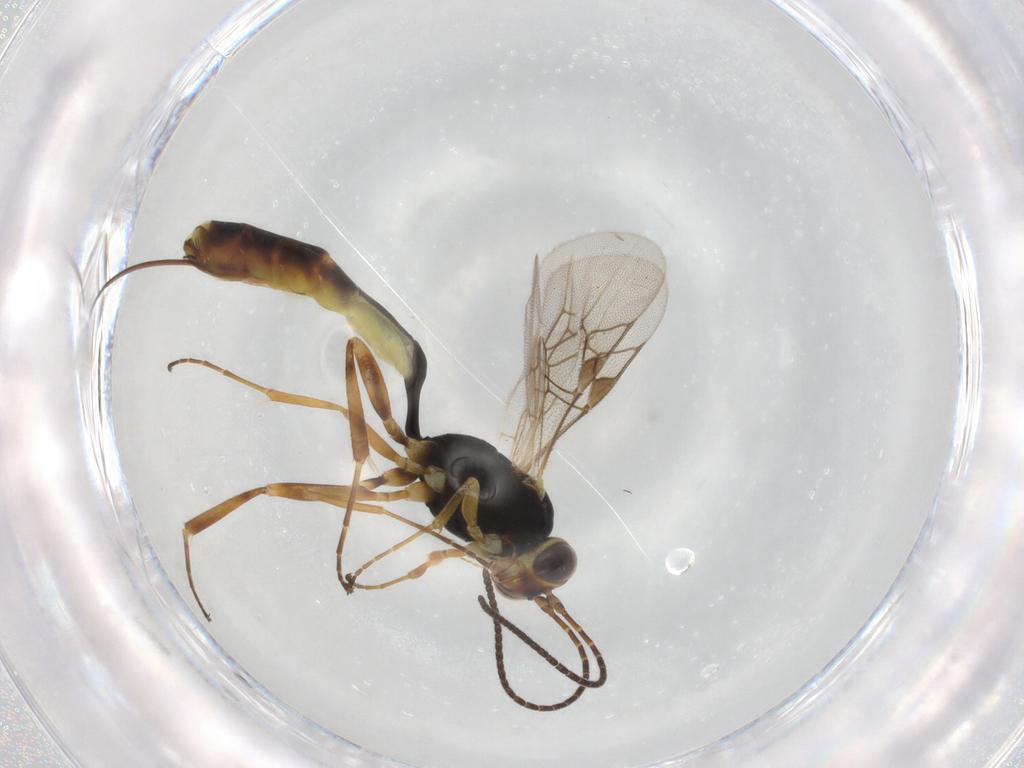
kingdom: Animalia
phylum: Arthropoda
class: Insecta
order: Hymenoptera
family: Ichneumonidae
